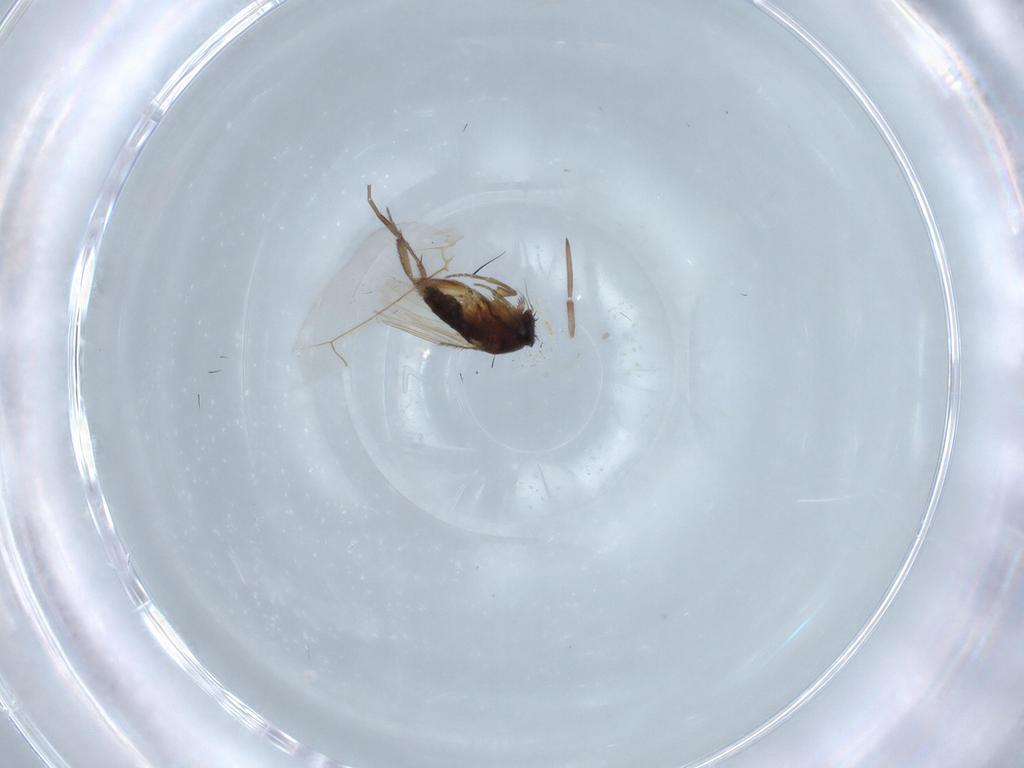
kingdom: Animalia
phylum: Arthropoda
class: Insecta
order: Diptera
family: Phoridae
